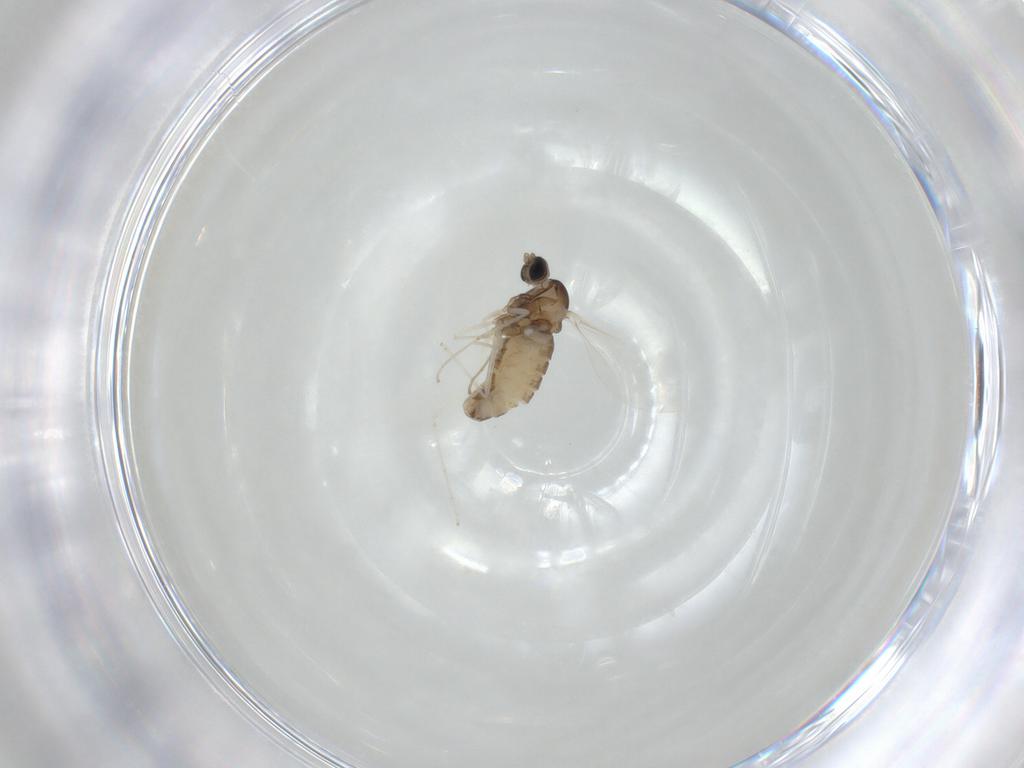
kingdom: Animalia
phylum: Arthropoda
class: Insecta
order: Diptera
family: Cecidomyiidae
